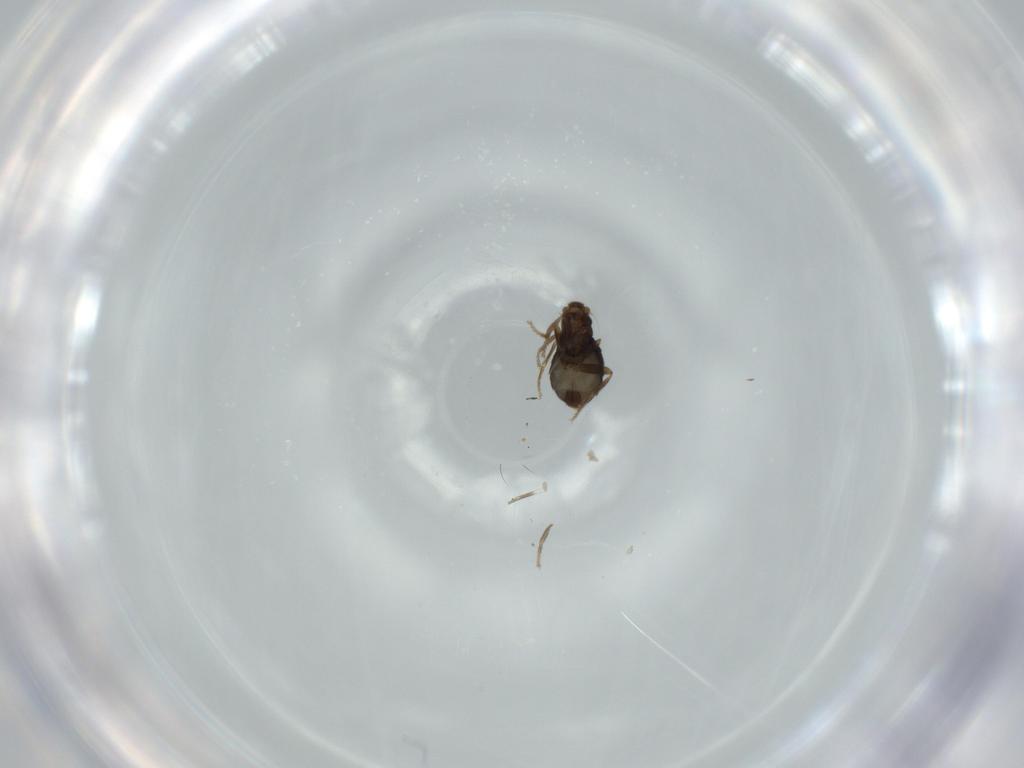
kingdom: Animalia
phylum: Arthropoda
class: Insecta
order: Diptera
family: Phoridae
